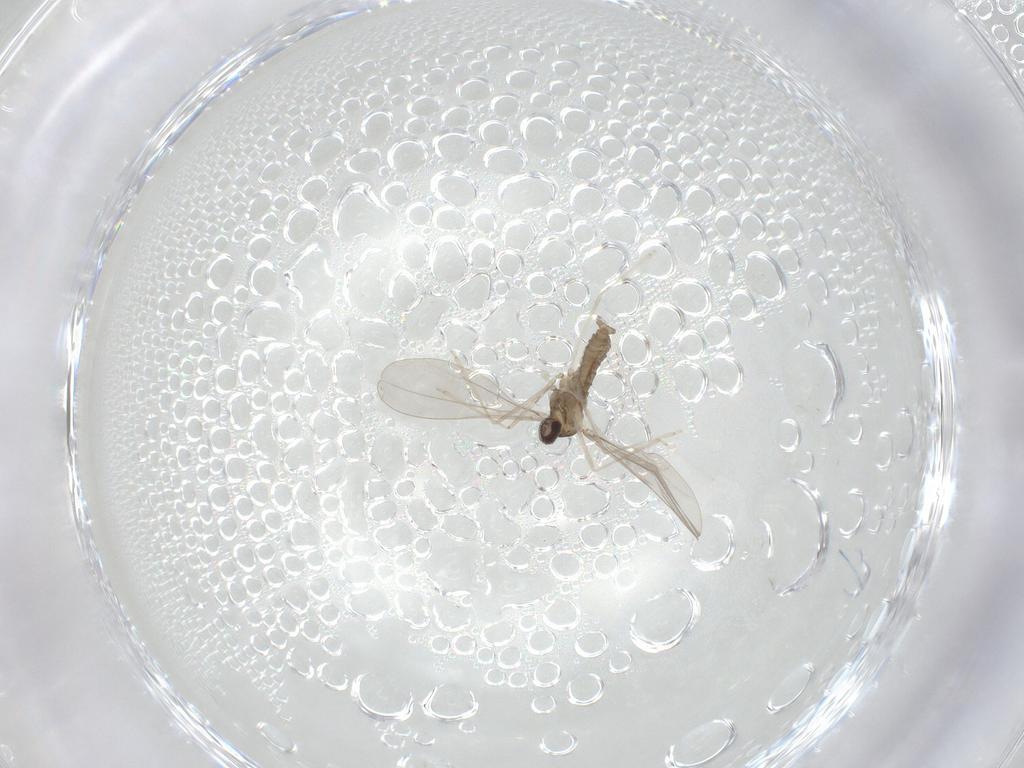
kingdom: Animalia
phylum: Arthropoda
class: Insecta
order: Diptera
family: Cecidomyiidae
